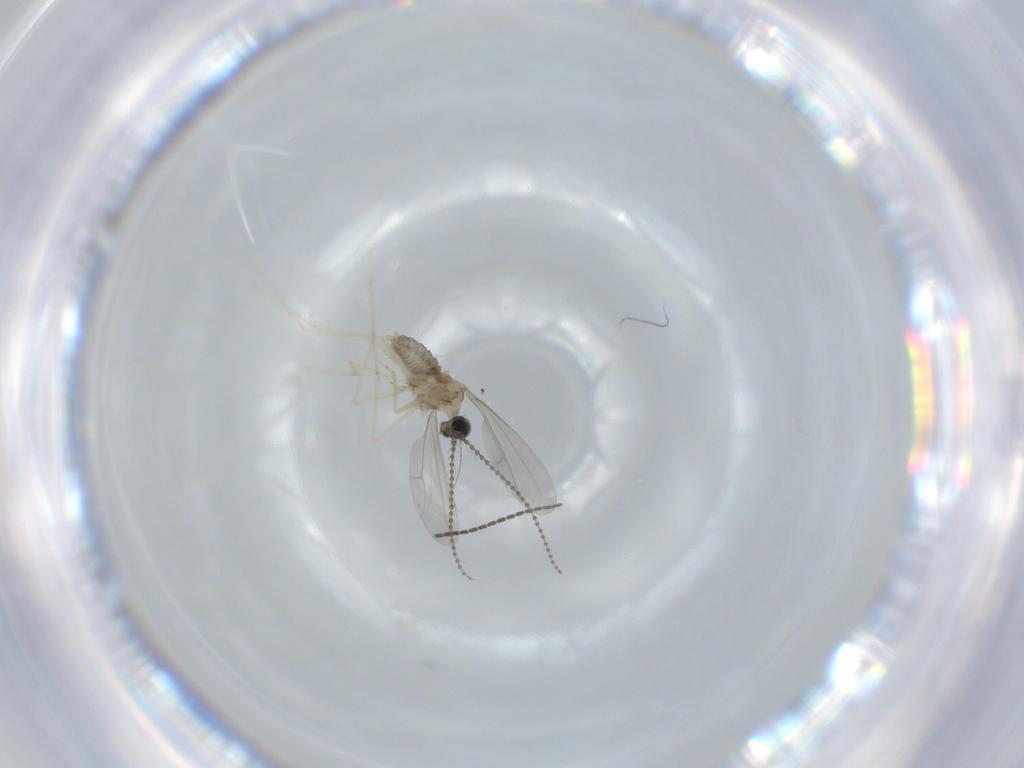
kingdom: Animalia
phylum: Arthropoda
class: Insecta
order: Diptera
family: Cecidomyiidae
